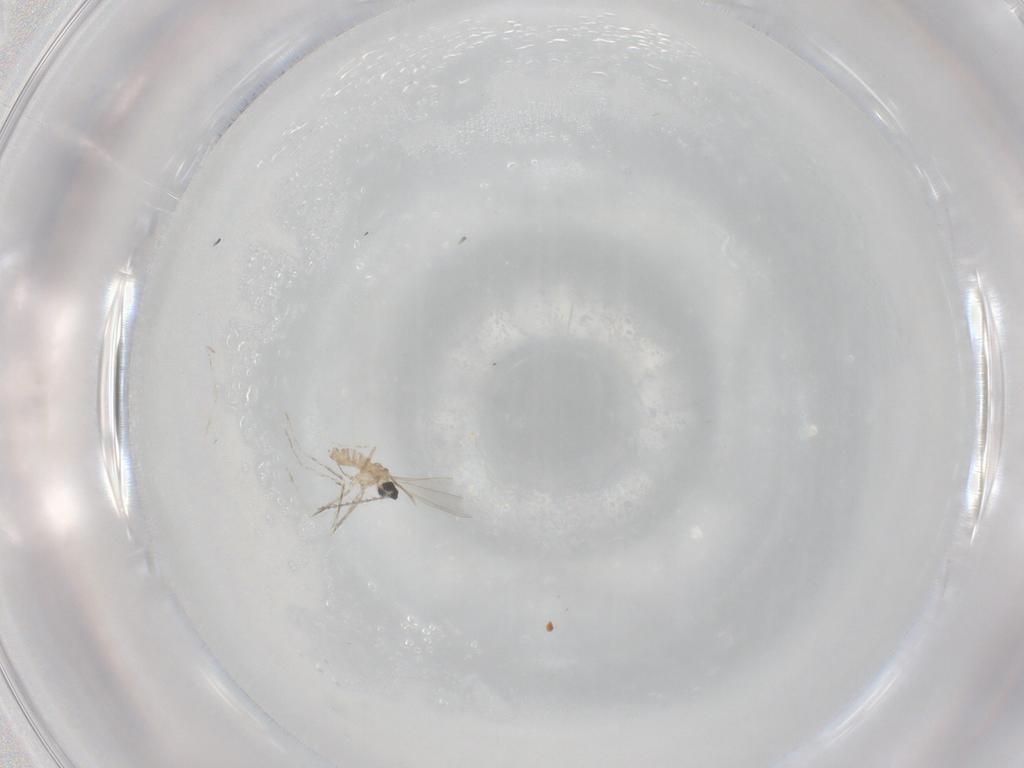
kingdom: Animalia
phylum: Arthropoda
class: Insecta
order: Diptera
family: Cecidomyiidae
